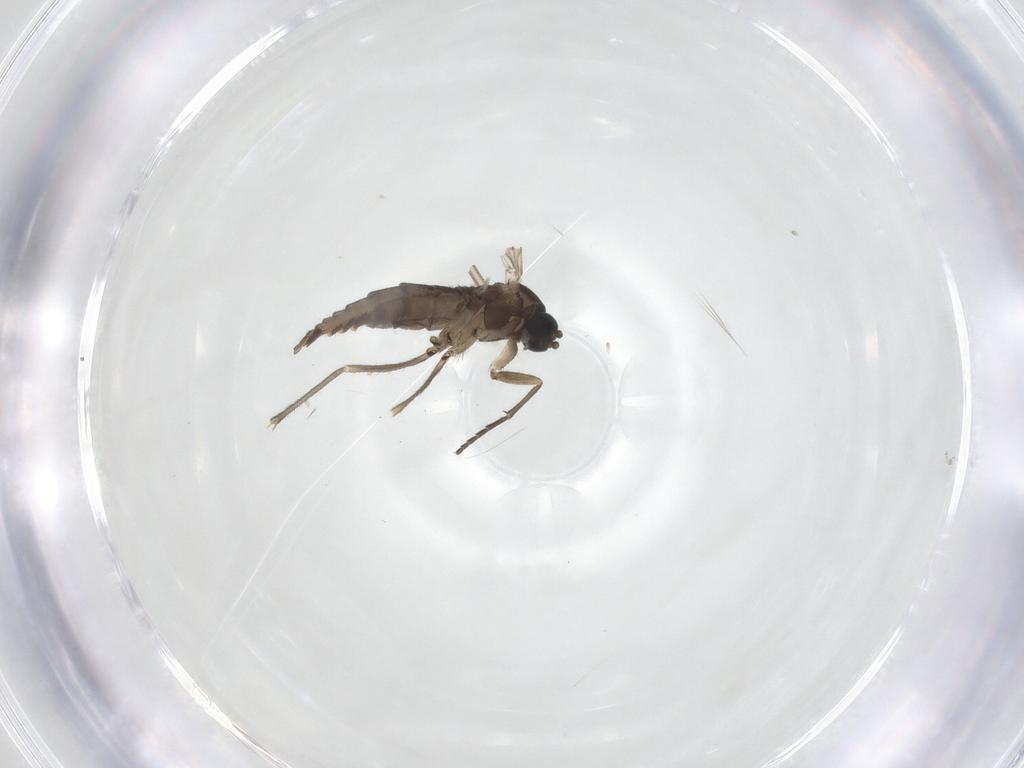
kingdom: Animalia
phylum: Arthropoda
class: Insecta
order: Diptera
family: Sciaridae
